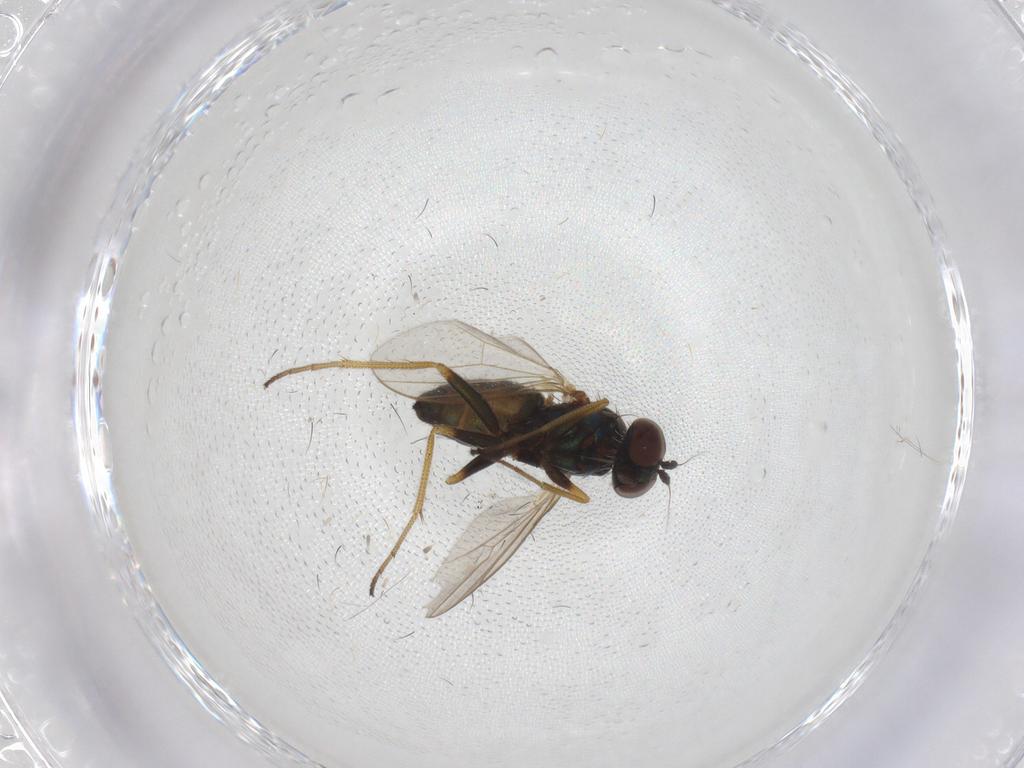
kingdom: Animalia
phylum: Arthropoda
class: Insecta
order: Diptera
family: Dolichopodidae
